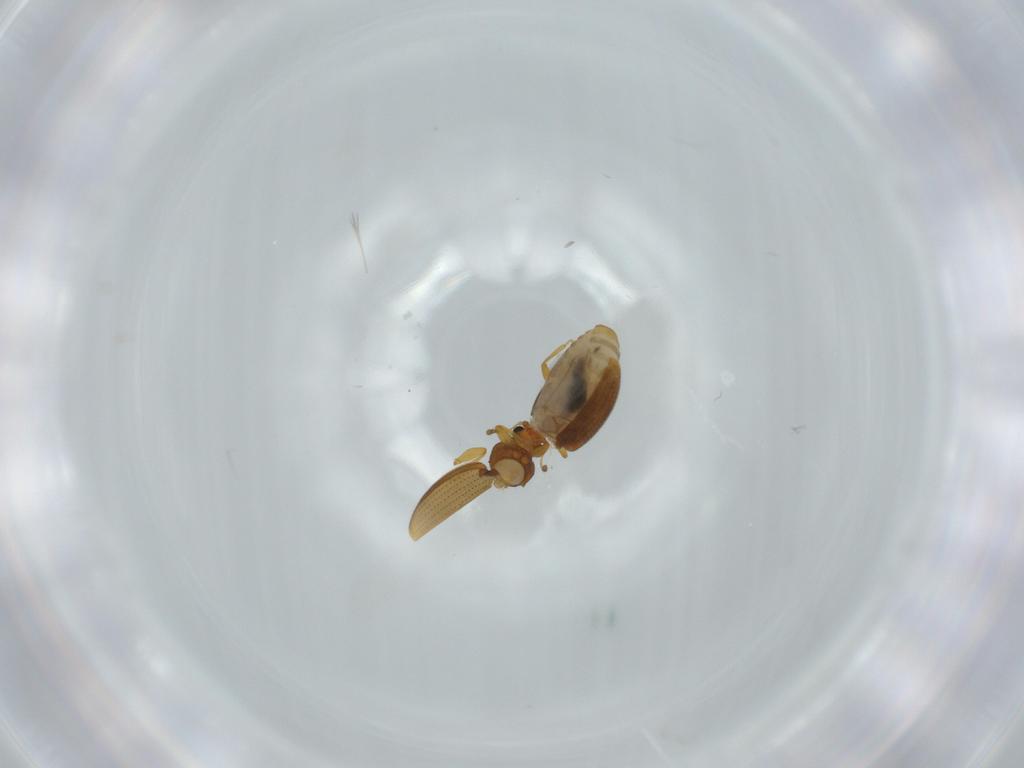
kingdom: Animalia
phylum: Arthropoda
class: Insecta
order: Coleoptera
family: Latridiidae
